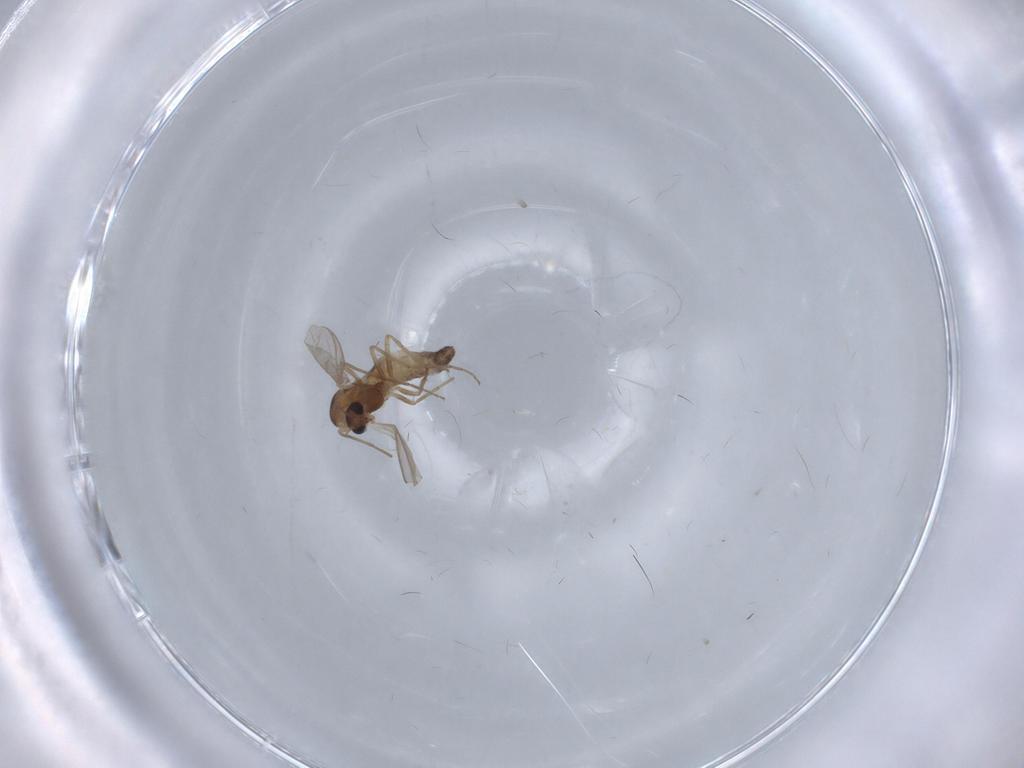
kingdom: Animalia
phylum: Arthropoda
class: Insecta
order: Diptera
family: Chironomidae
